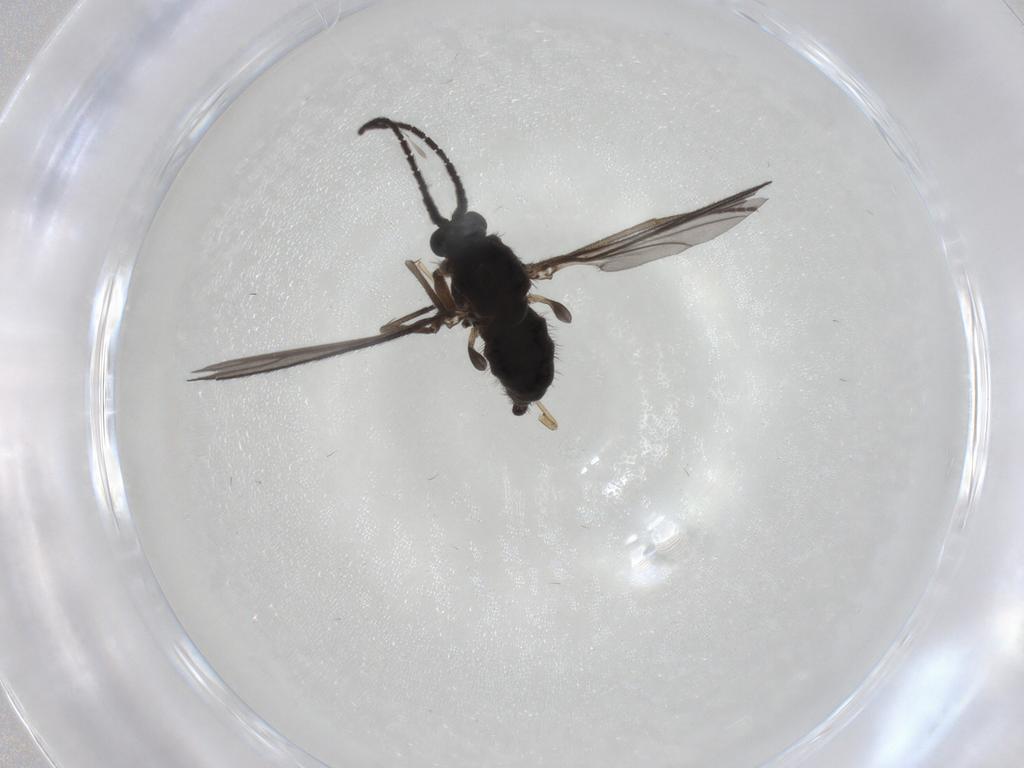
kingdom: Animalia
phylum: Arthropoda
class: Insecta
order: Diptera
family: Sciaridae
